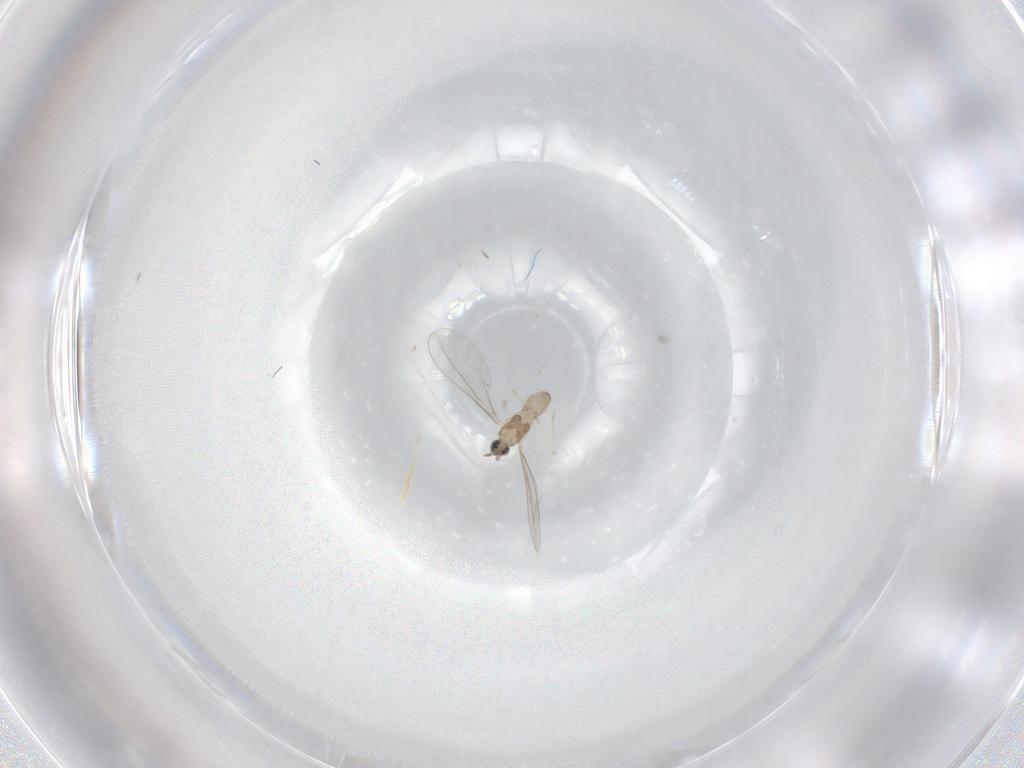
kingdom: Animalia
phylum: Arthropoda
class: Insecta
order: Diptera
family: Cecidomyiidae
